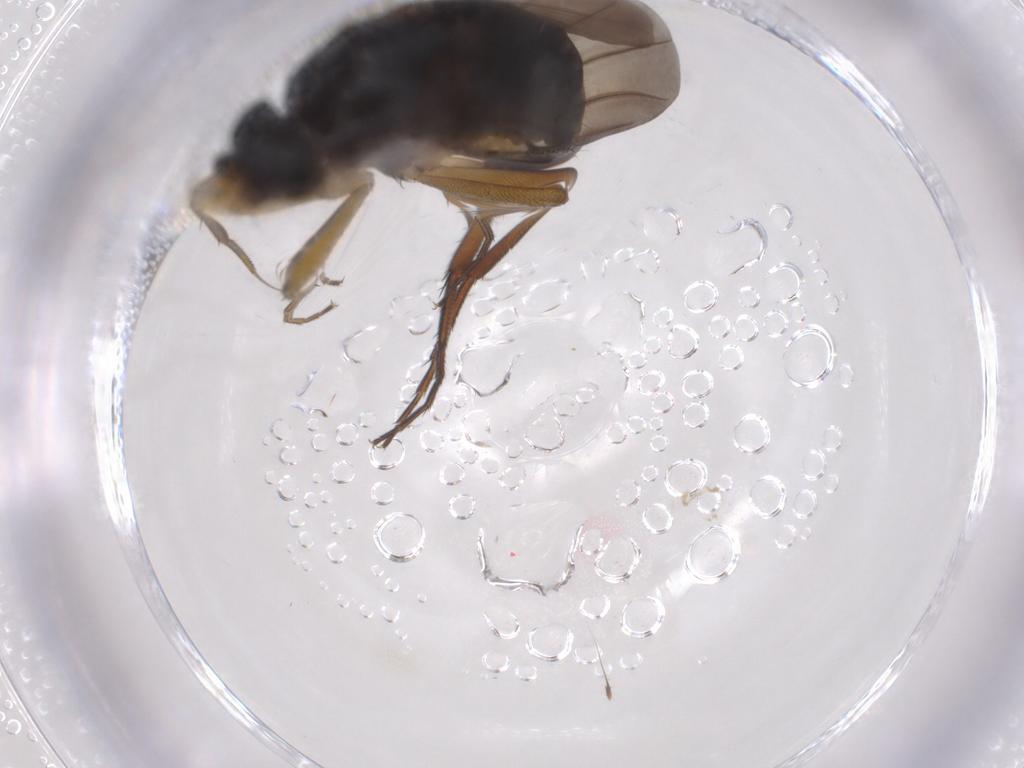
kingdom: Animalia
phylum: Arthropoda
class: Insecta
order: Diptera
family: Phoridae
